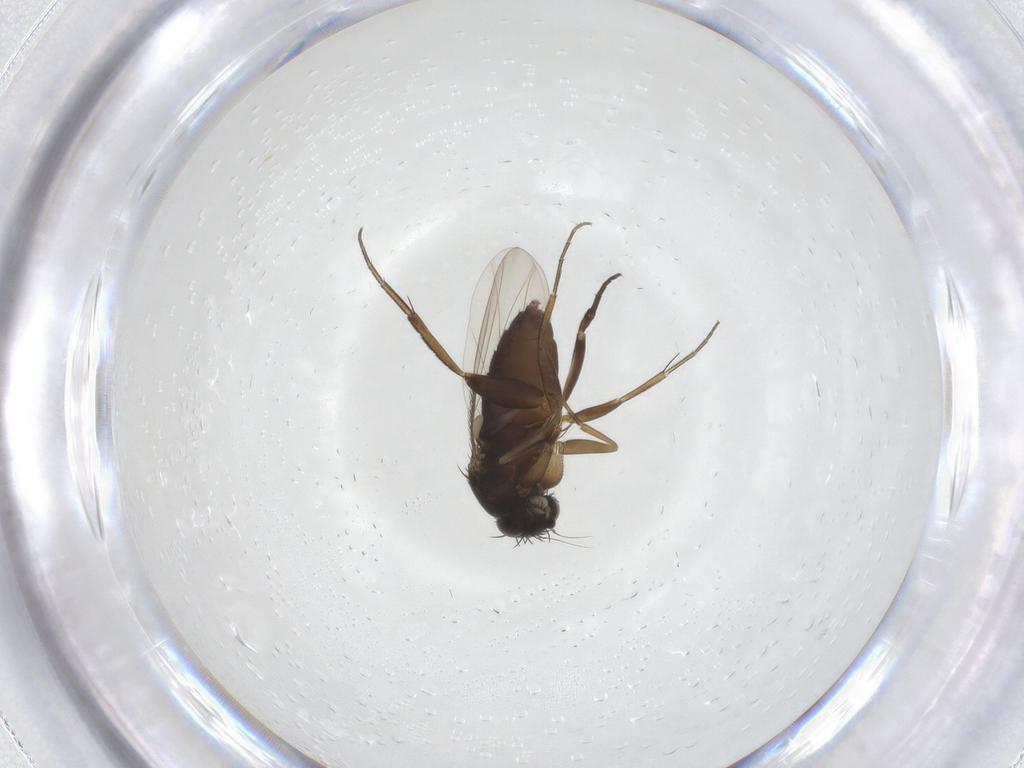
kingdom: Animalia
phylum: Arthropoda
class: Insecta
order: Diptera
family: Phoridae
